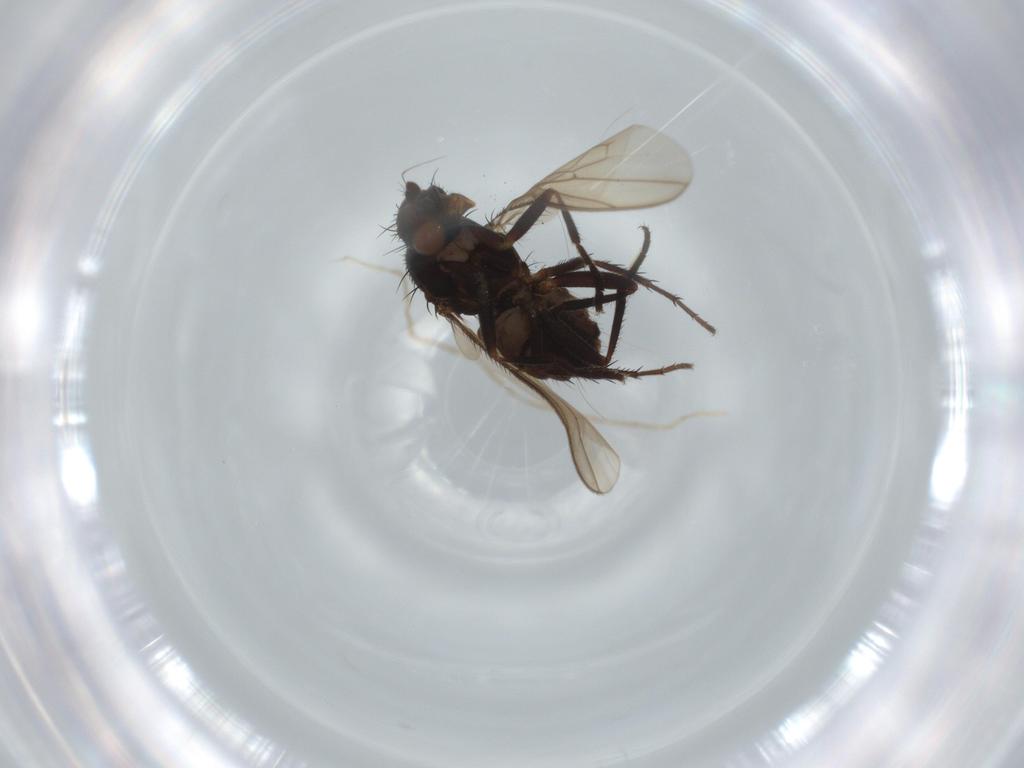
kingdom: Animalia
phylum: Arthropoda
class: Insecta
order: Diptera
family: Sphaeroceridae
